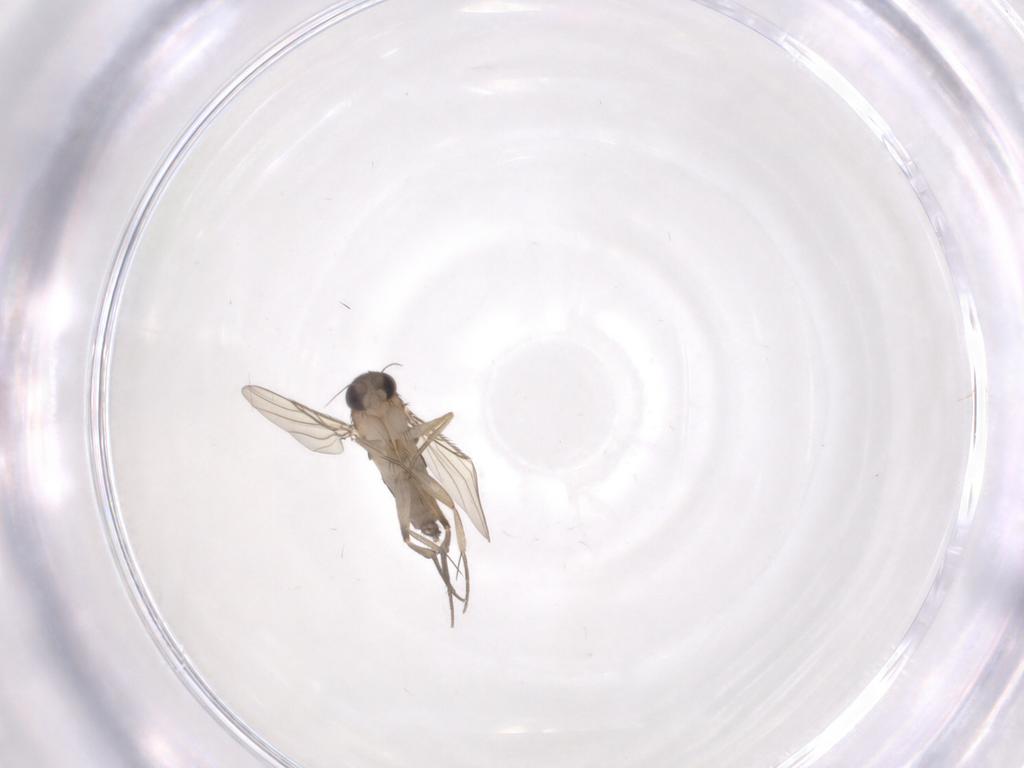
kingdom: Animalia
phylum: Arthropoda
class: Insecta
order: Diptera
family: Phoridae
